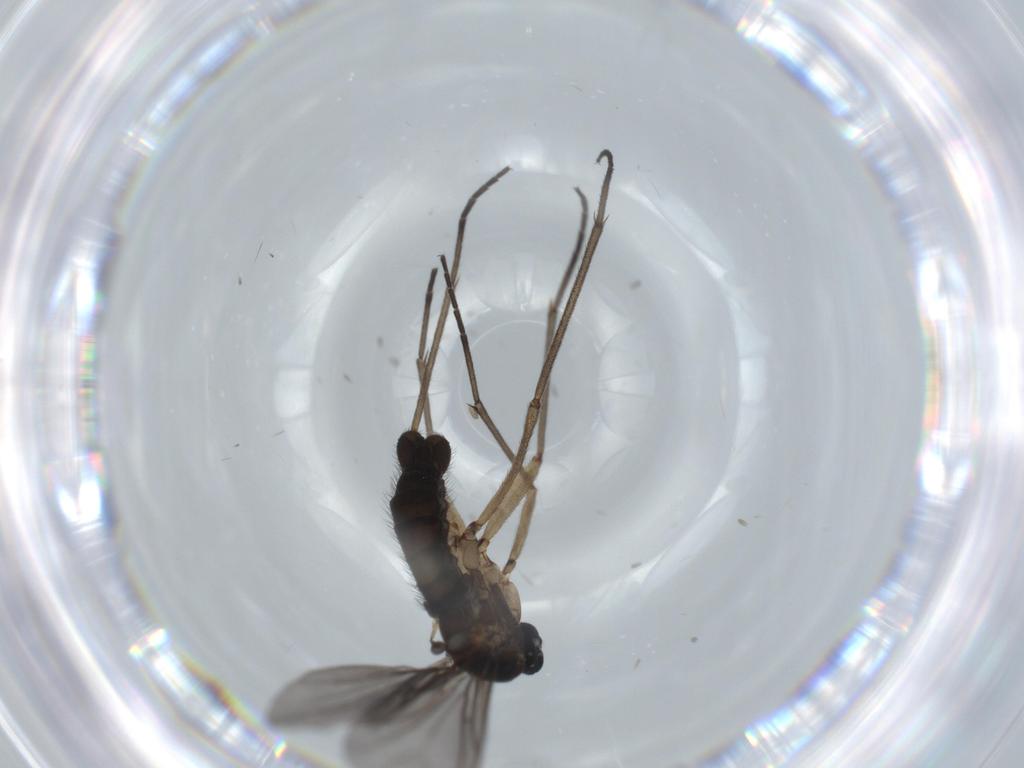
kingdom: Animalia
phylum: Arthropoda
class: Insecta
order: Diptera
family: Sciaridae
